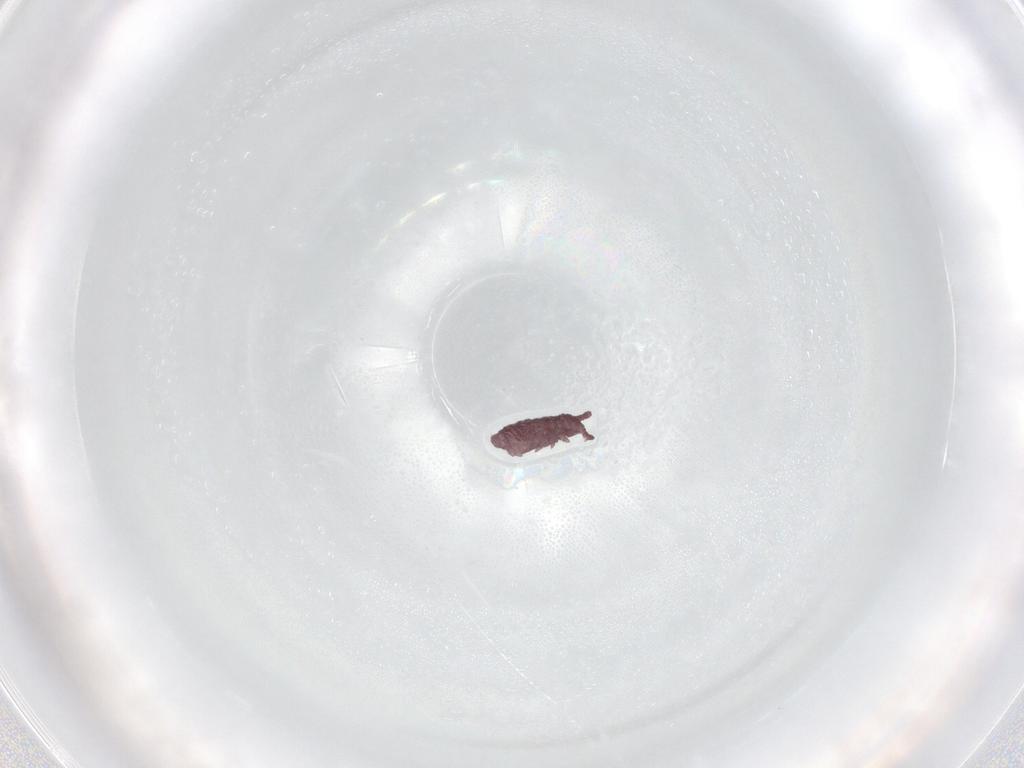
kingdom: Animalia
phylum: Arthropoda
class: Collembola
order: Poduromorpha
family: Hypogastruridae
